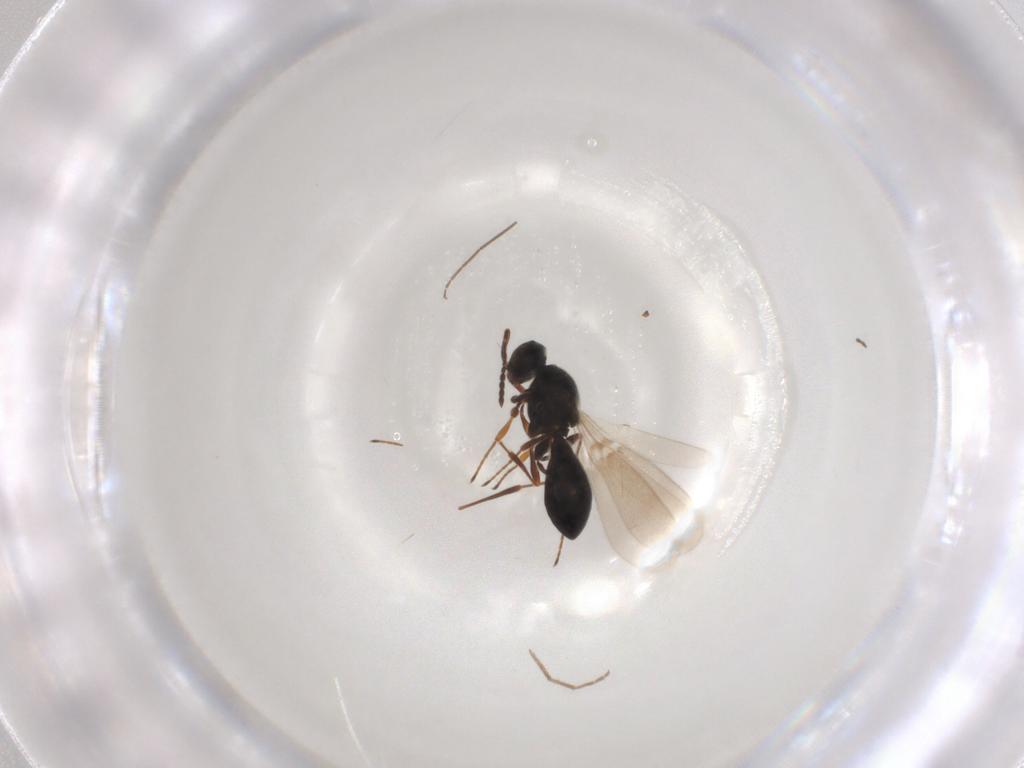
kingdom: Animalia
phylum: Arthropoda
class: Insecta
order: Hymenoptera
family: Platygastridae
